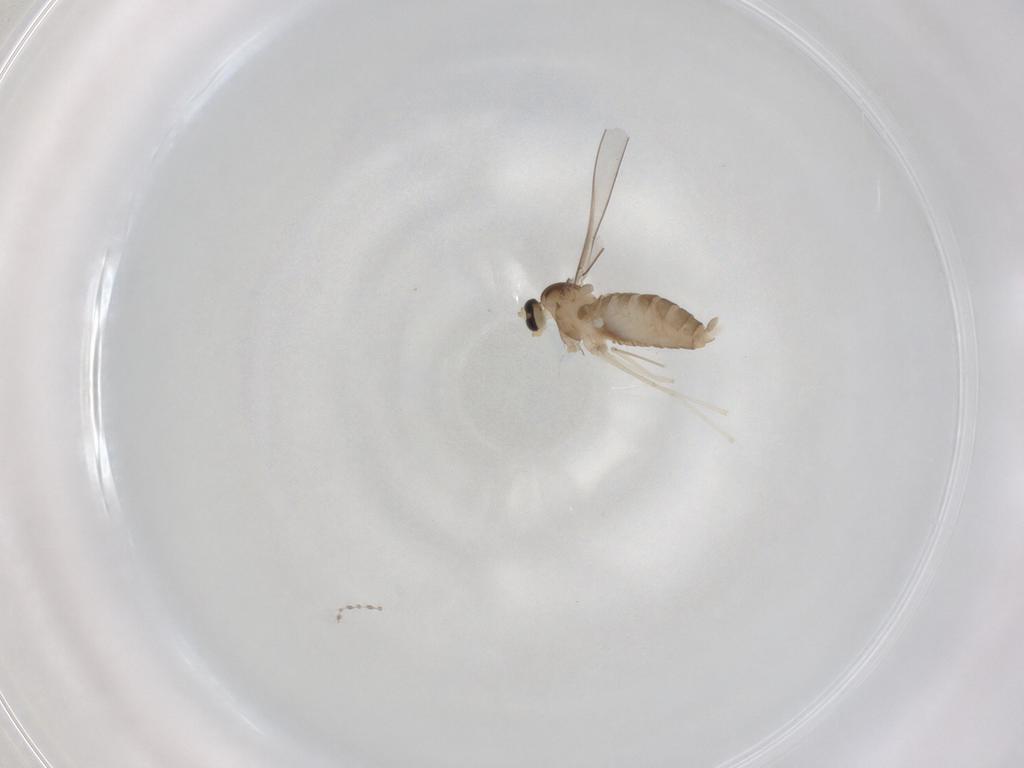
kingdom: Animalia
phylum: Arthropoda
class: Insecta
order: Diptera
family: Cecidomyiidae
